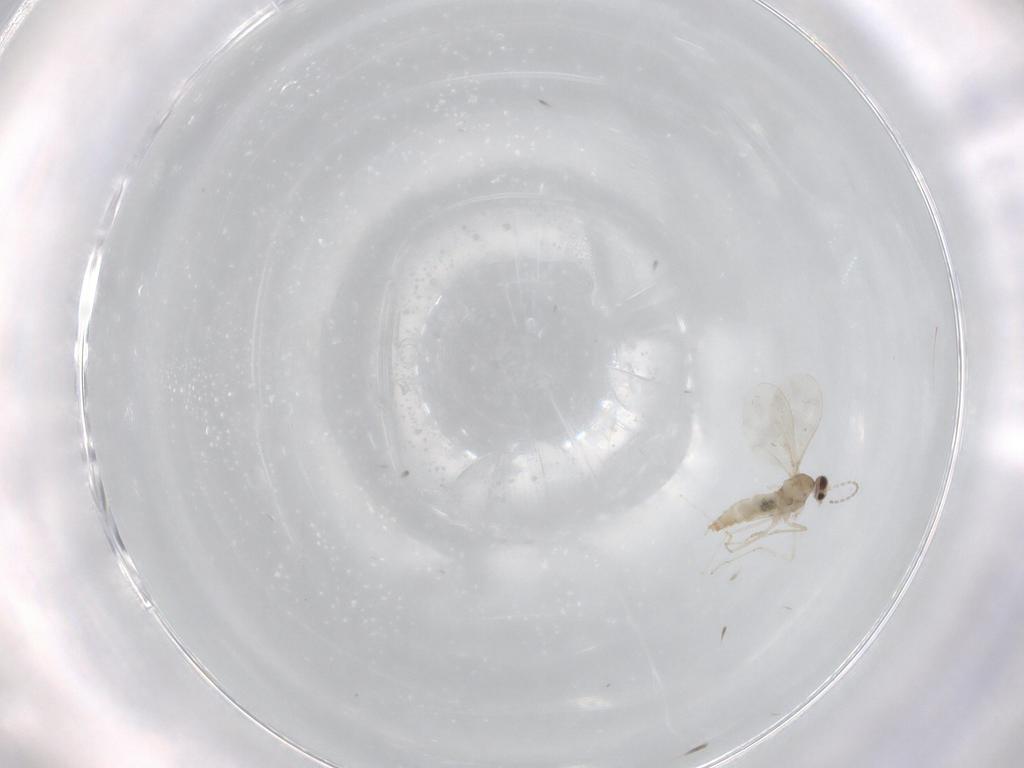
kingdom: Animalia
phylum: Arthropoda
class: Insecta
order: Diptera
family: Cecidomyiidae
